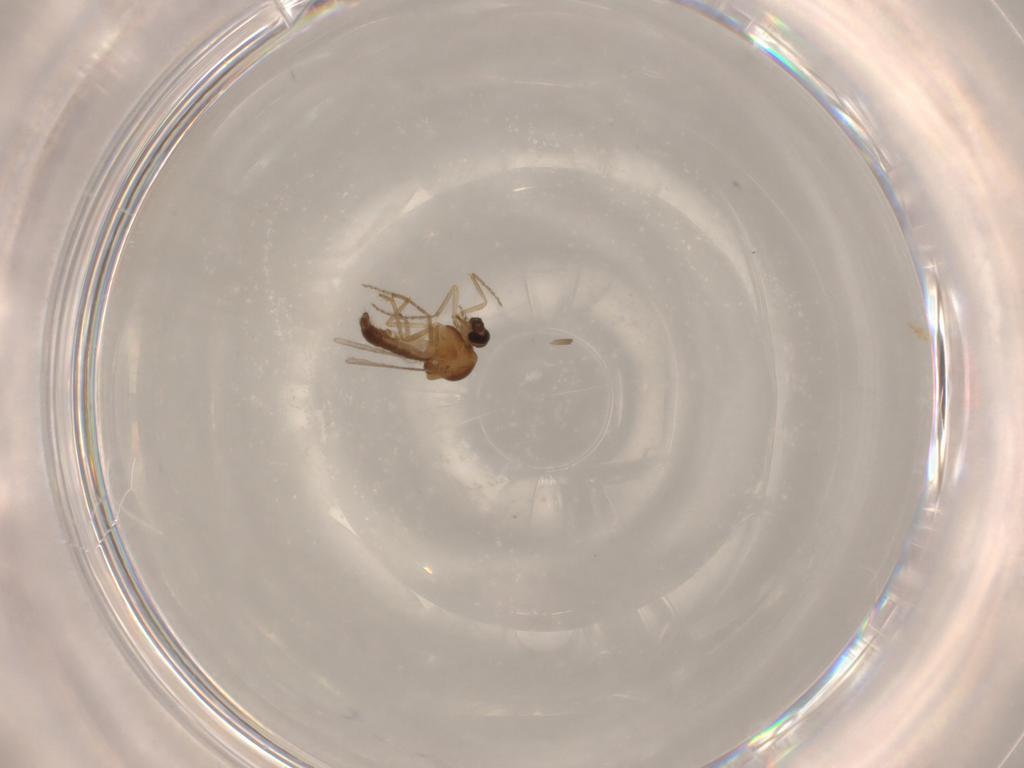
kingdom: Animalia
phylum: Arthropoda
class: Insecta
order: Diptera
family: Ceratopogonidae
